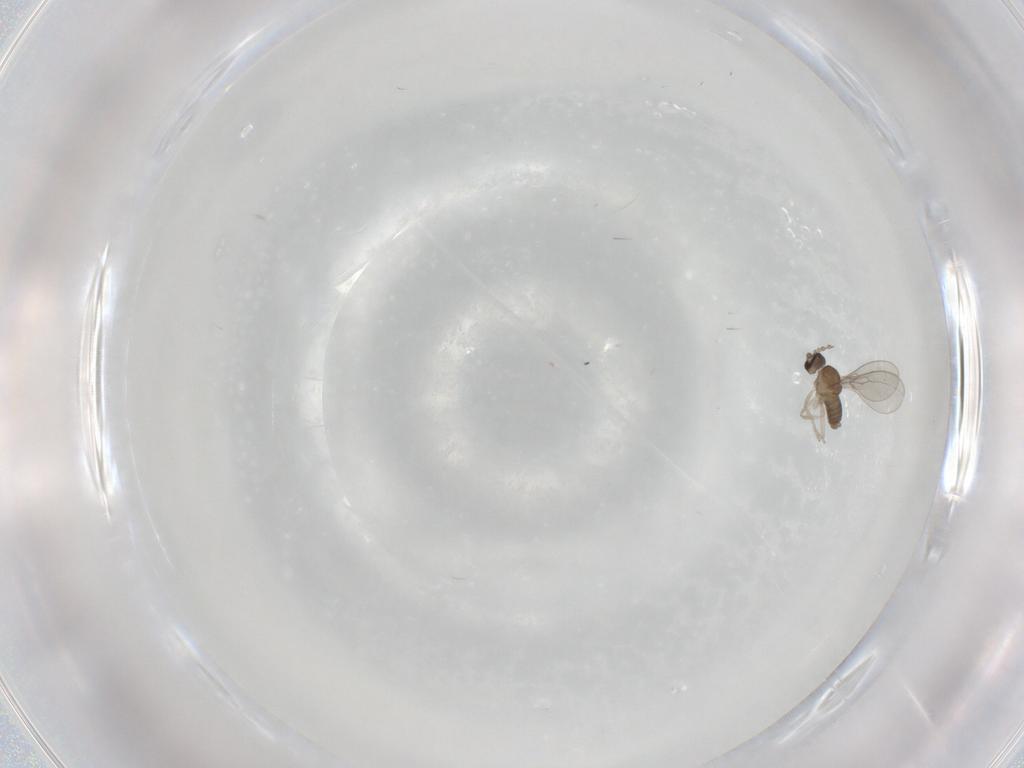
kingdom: Animalia
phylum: Arthropoda
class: Insecta
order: Diptera
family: Cecidomyiidae
